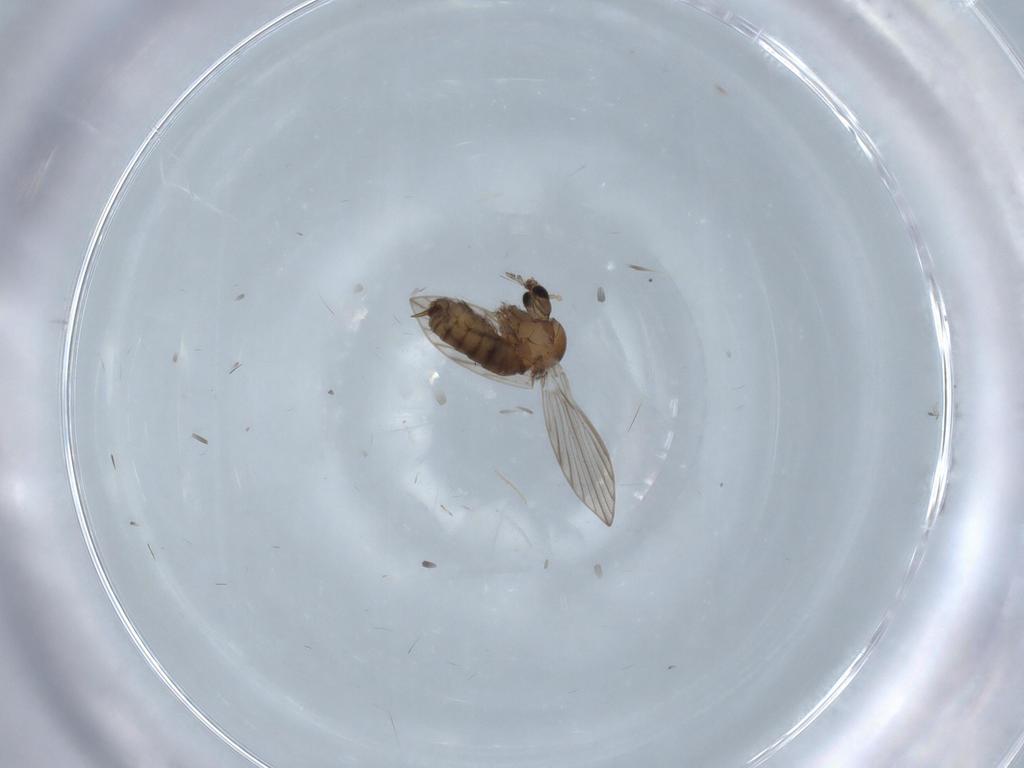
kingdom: Animalia
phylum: Arthropoda
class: Insecta
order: Diptera
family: Psychodidae
